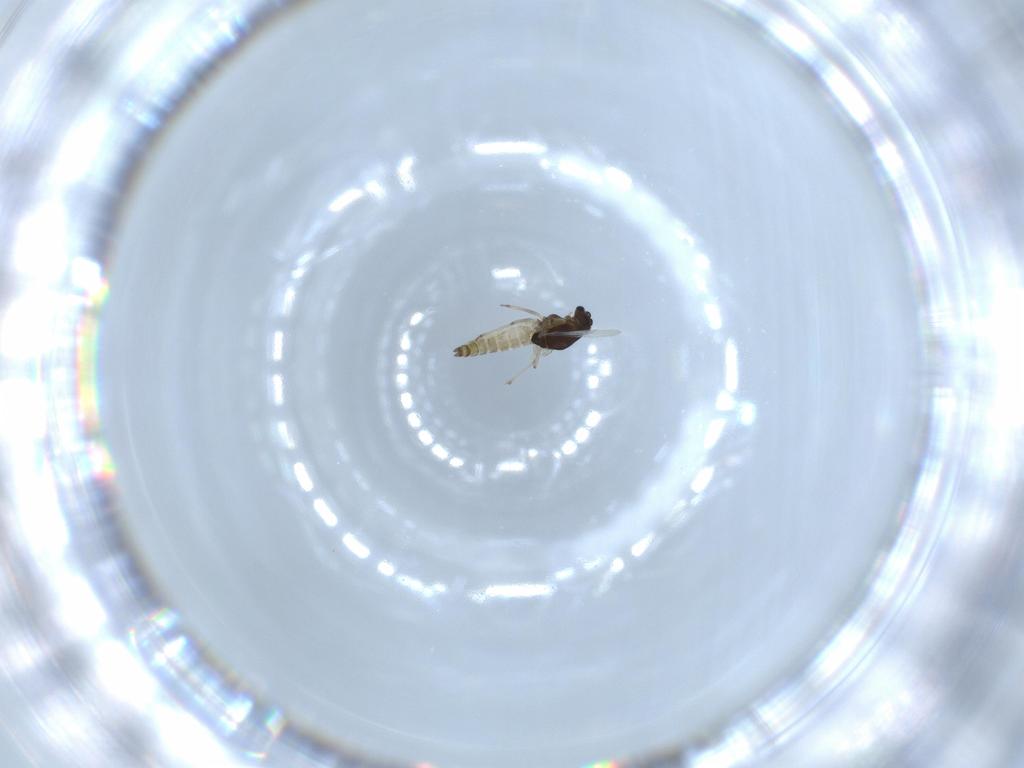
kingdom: Animalia
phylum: Arthropoda
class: Insecta
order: Diptera
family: Chironomidae
